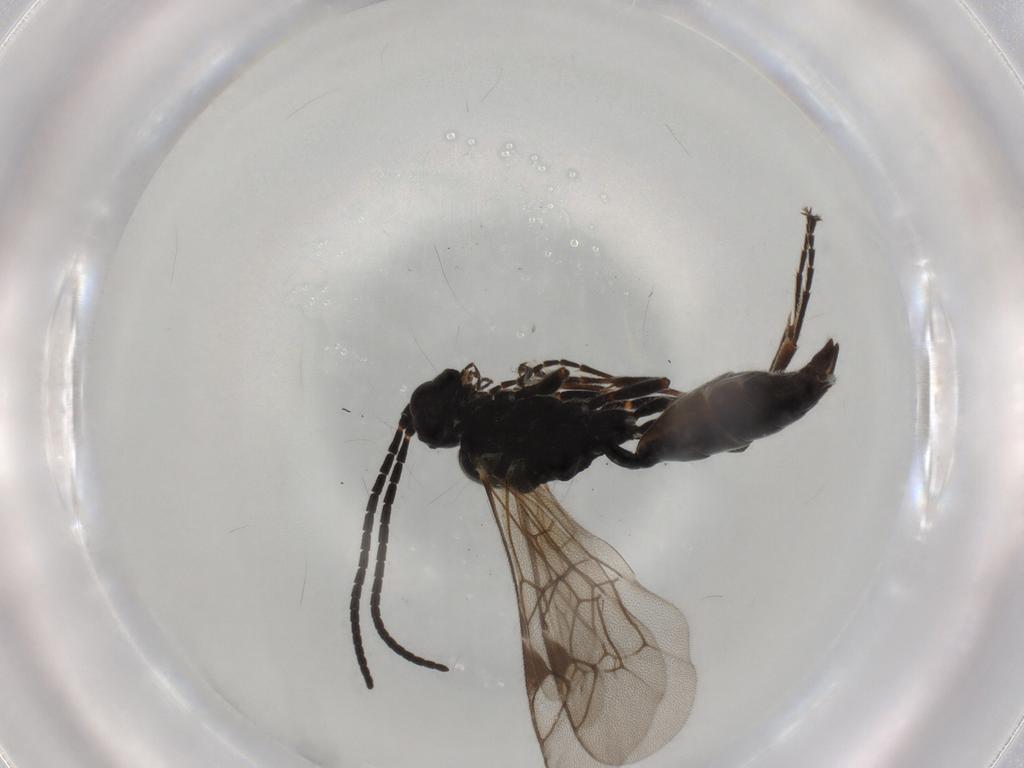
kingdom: Animalia
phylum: Arthropoda
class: Insecta
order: Hymenoptera
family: Ichneumonidae
